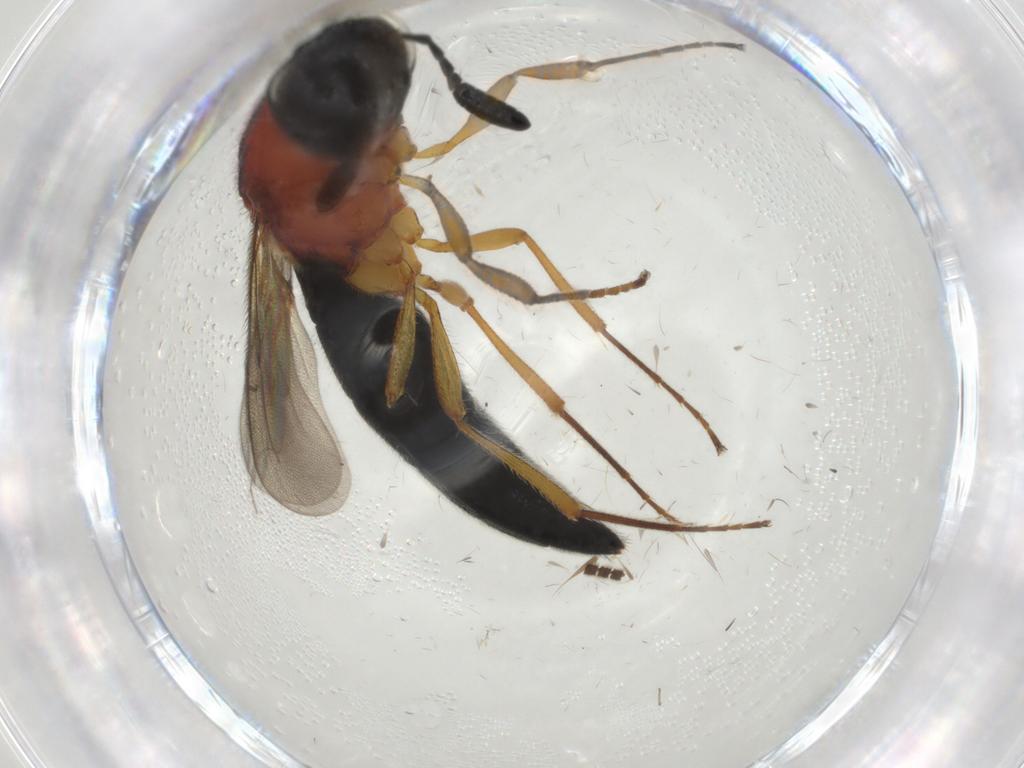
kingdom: Animalia
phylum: Arthropoda
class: Insecta
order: Hymenoptera
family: Scelionidae
